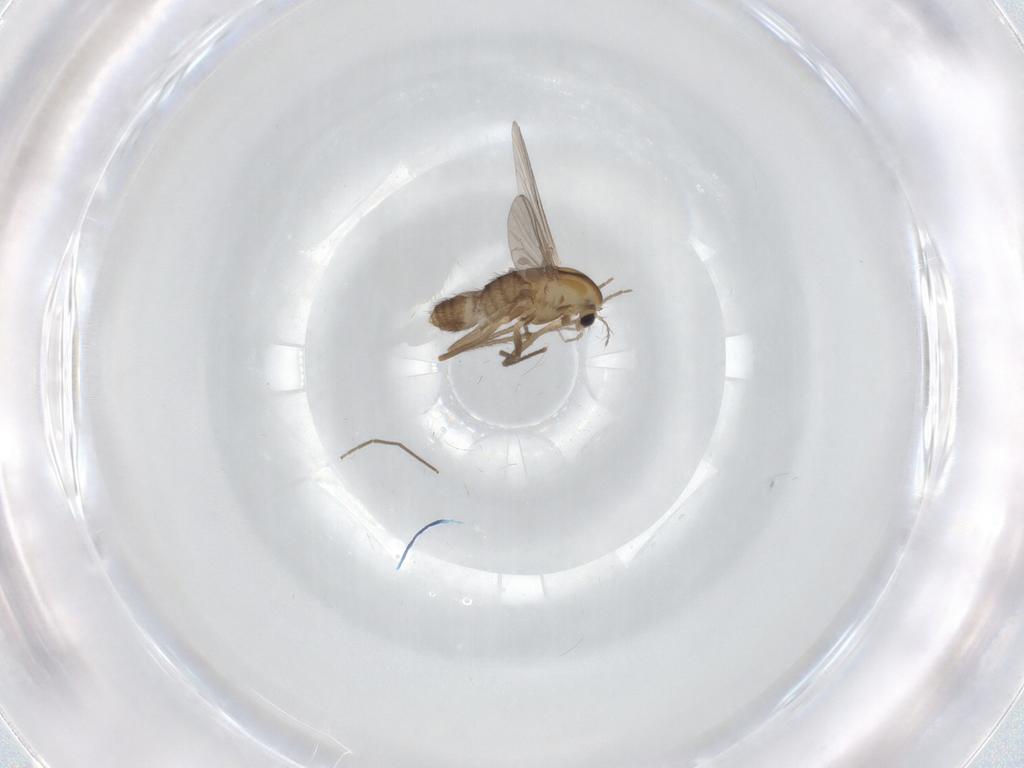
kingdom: Animalia
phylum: Arthropoda
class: Insecta
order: Diptera
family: Chironomidae
